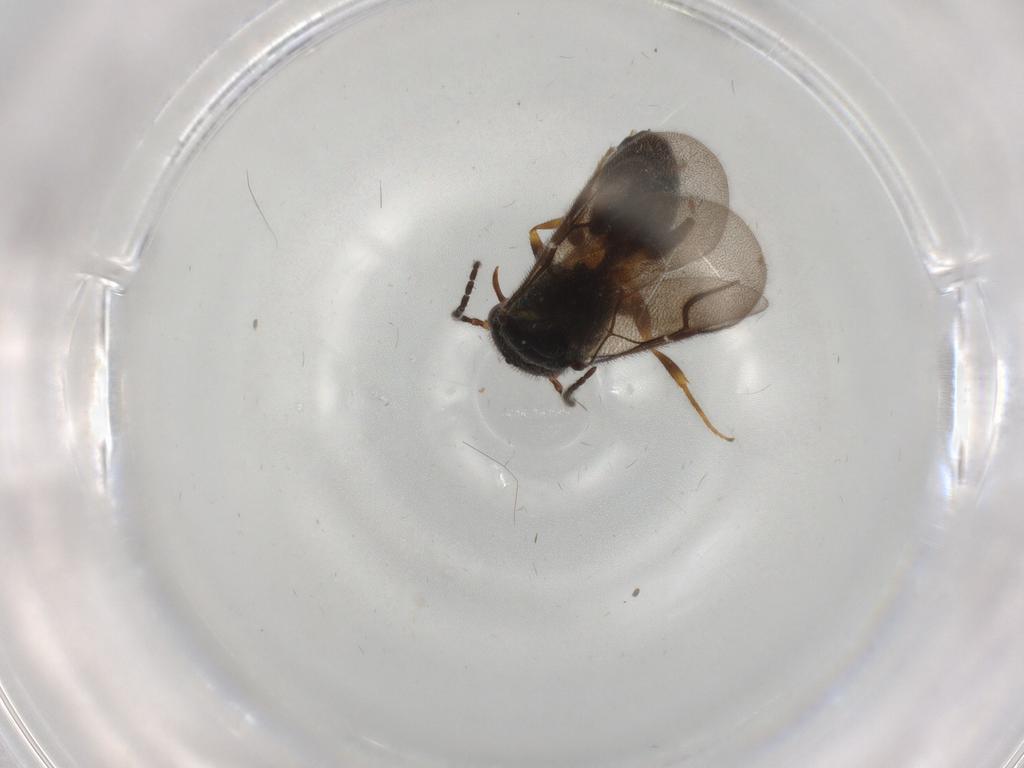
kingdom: Animalia
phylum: Arthropoda
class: Insecta
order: Hymenoptera
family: Bethylidae
